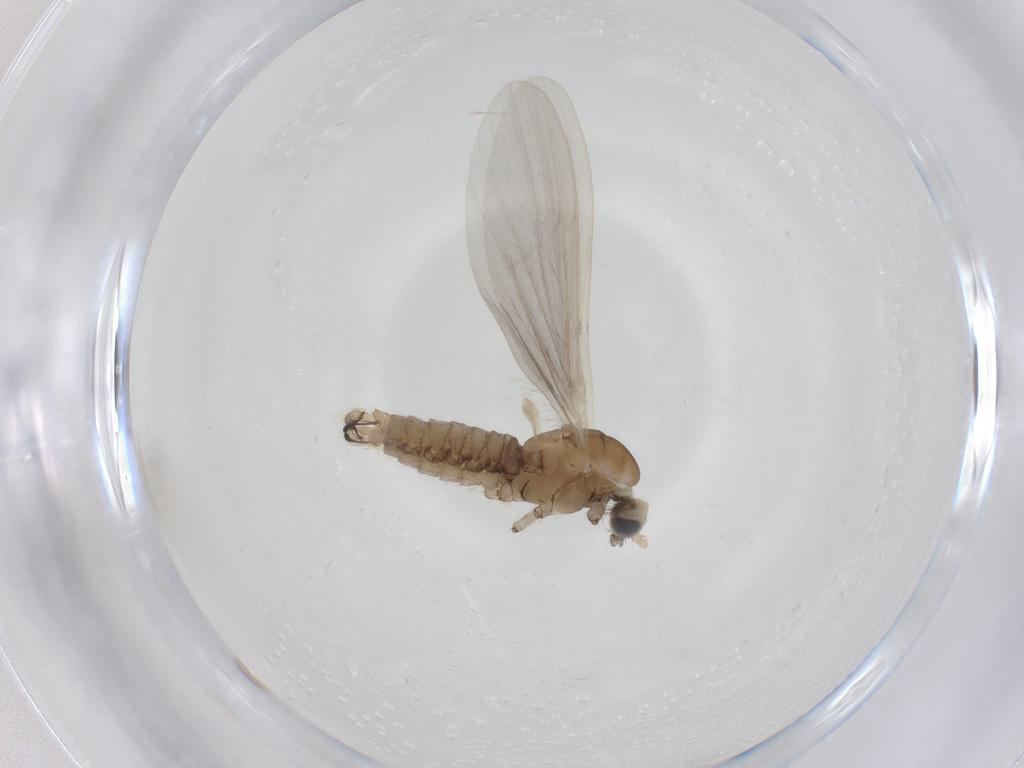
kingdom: Animalia
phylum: Arthropoda
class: Insecta
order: Diptera
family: Limoniidae
